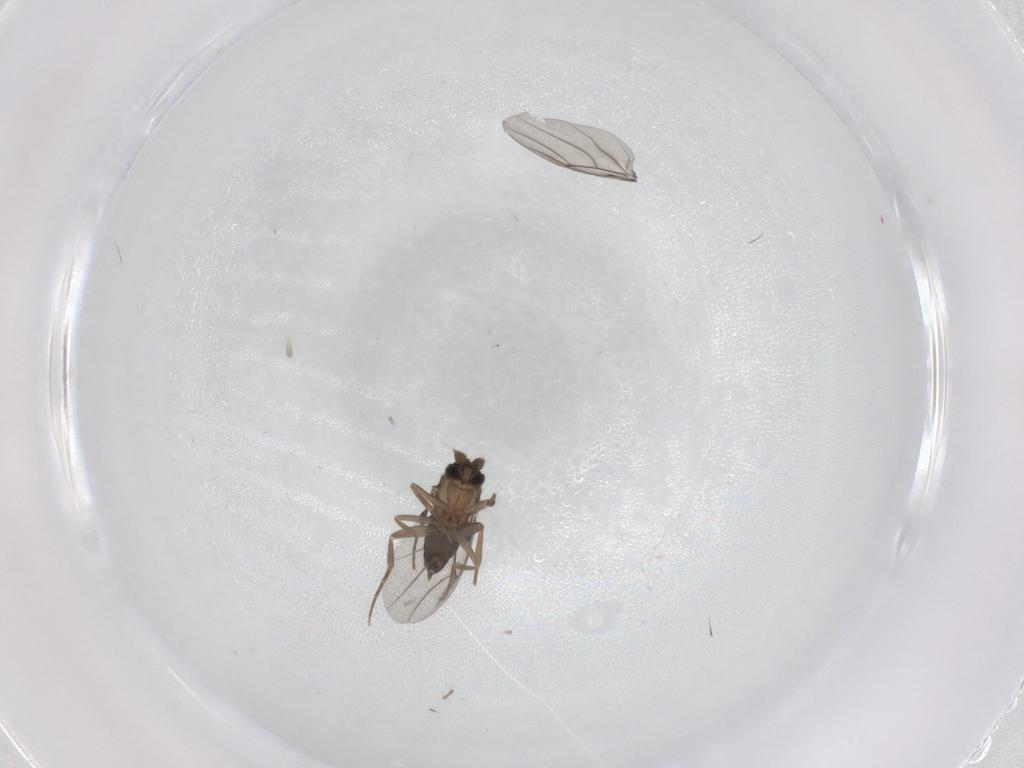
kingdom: Animalia
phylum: Arthropoda
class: Insecta
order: Diptera
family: Phoridae
